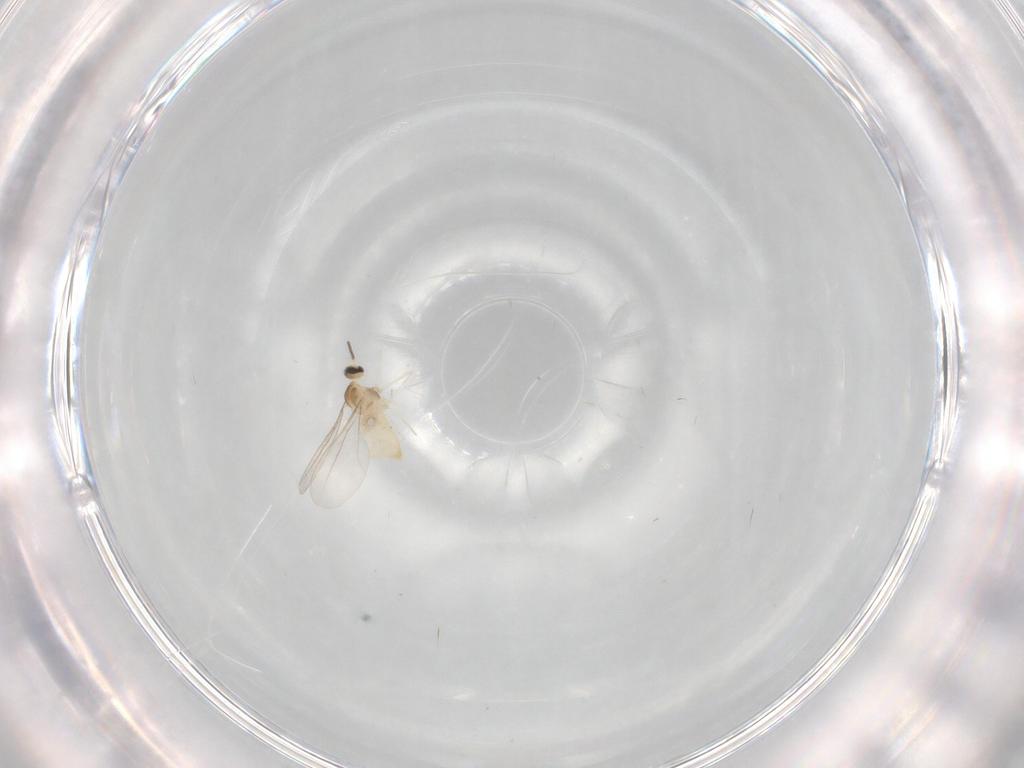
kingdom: Animalia
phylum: Arthropoda
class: Insecta
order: Diptera
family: Cecidomyiidae
